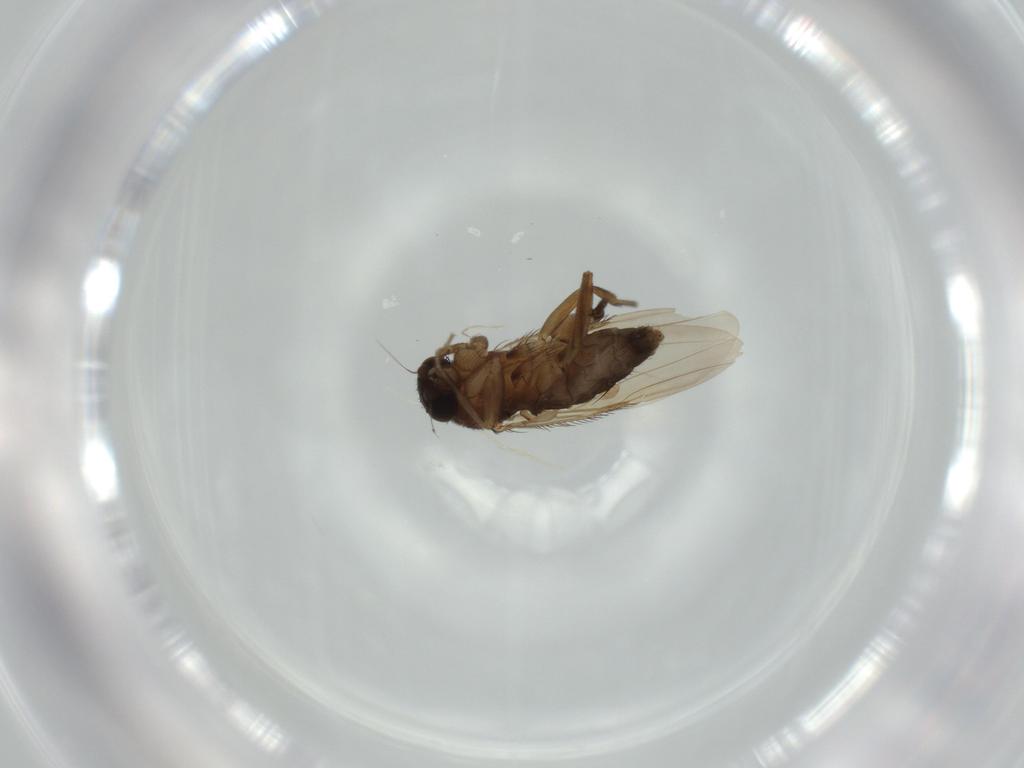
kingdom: Animalia
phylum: Arthropoda
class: Insecta
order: Diptera
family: Phoridae
